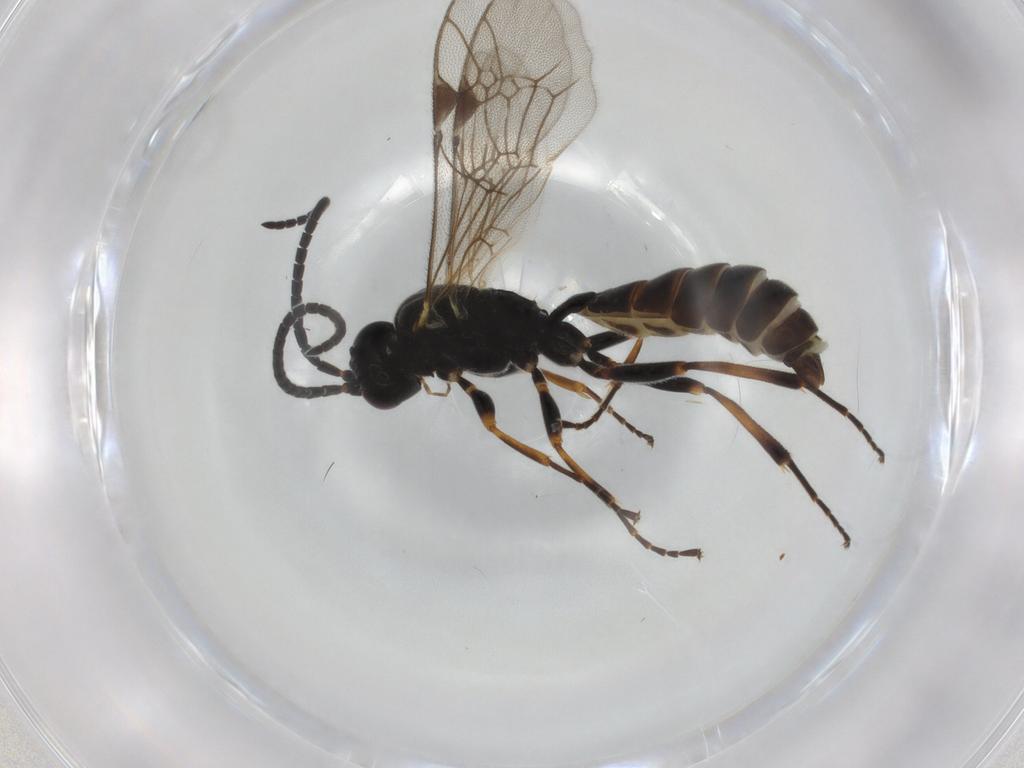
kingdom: Animalia
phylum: Arthropoda
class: Insecta
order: Hymenoptera
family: Ichneumonidae
